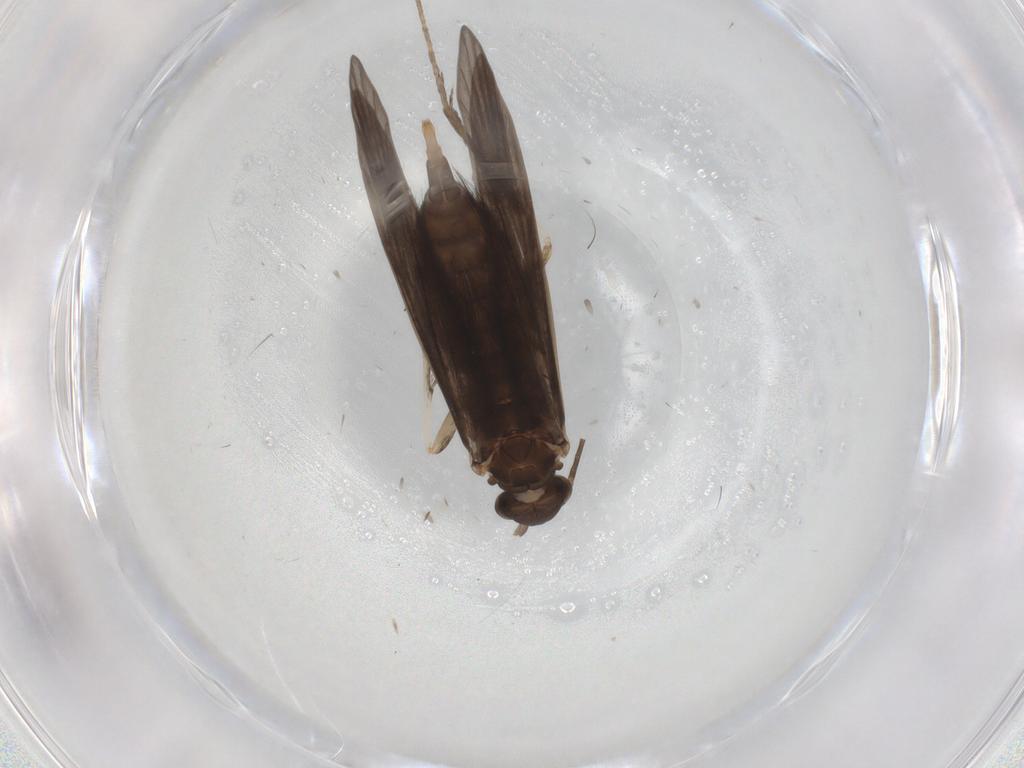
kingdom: Animalia
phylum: Arthropoda
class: Insecta
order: Trichoptera
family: Xiphocentronidae
